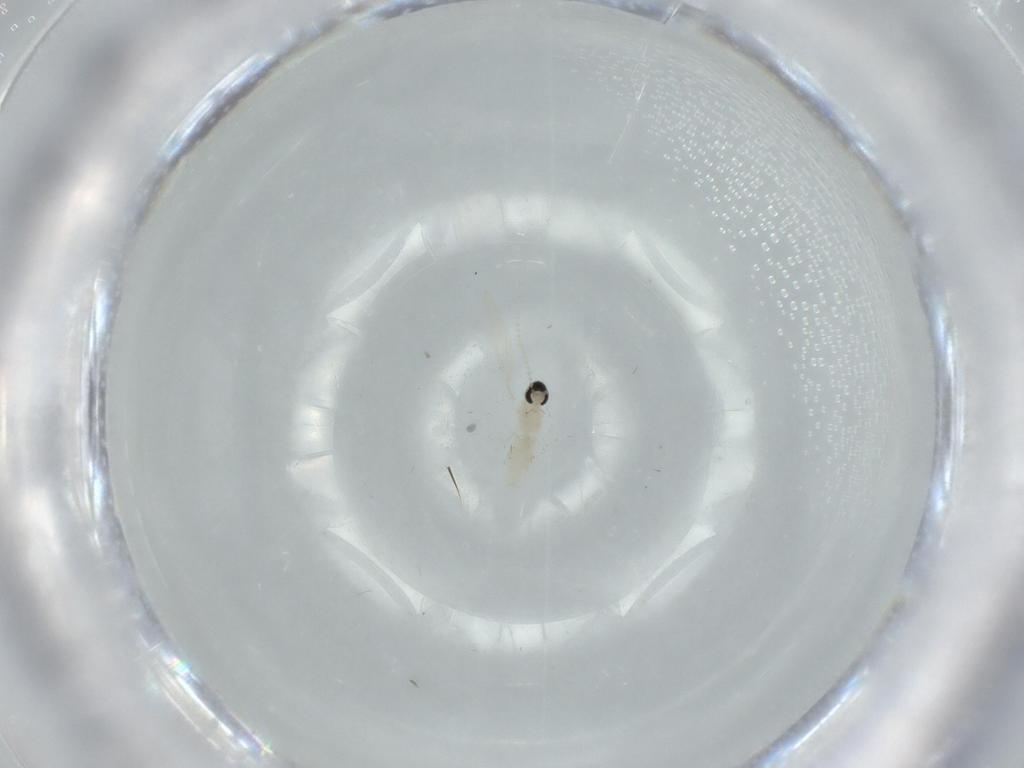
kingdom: Animalia
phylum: Arthropoda
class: Insecta
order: Diptera
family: Cecidomyiidae
